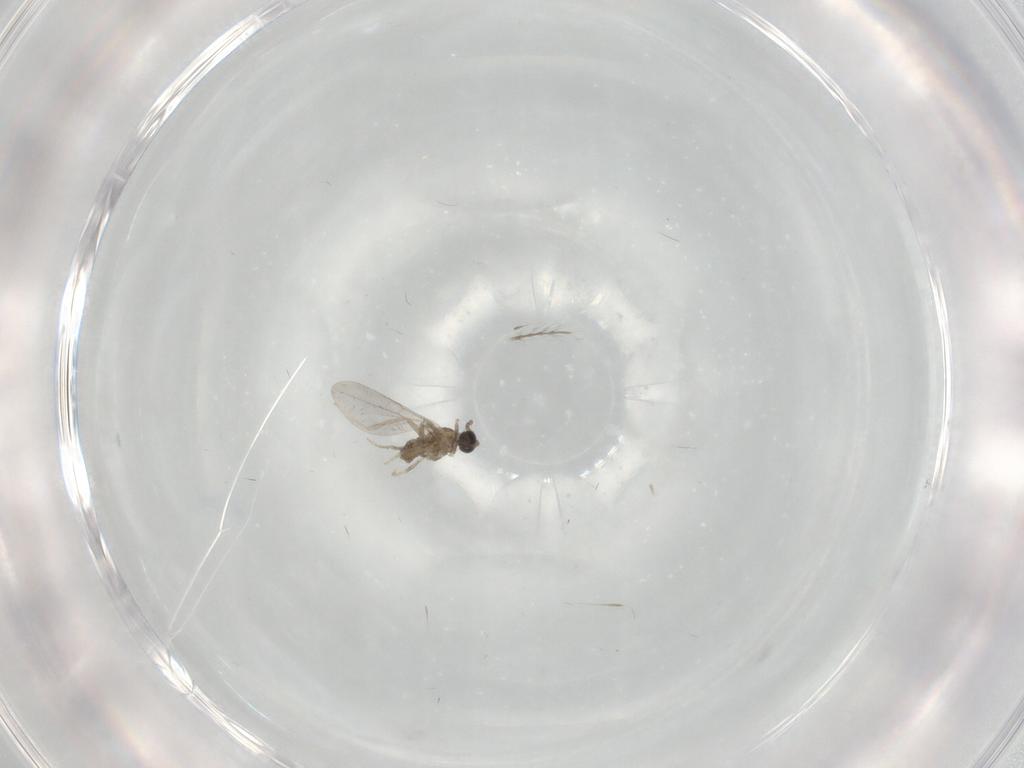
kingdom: Animalia
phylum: Arthropoda
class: Insecta
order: Diptera
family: Cecidomyiidae
